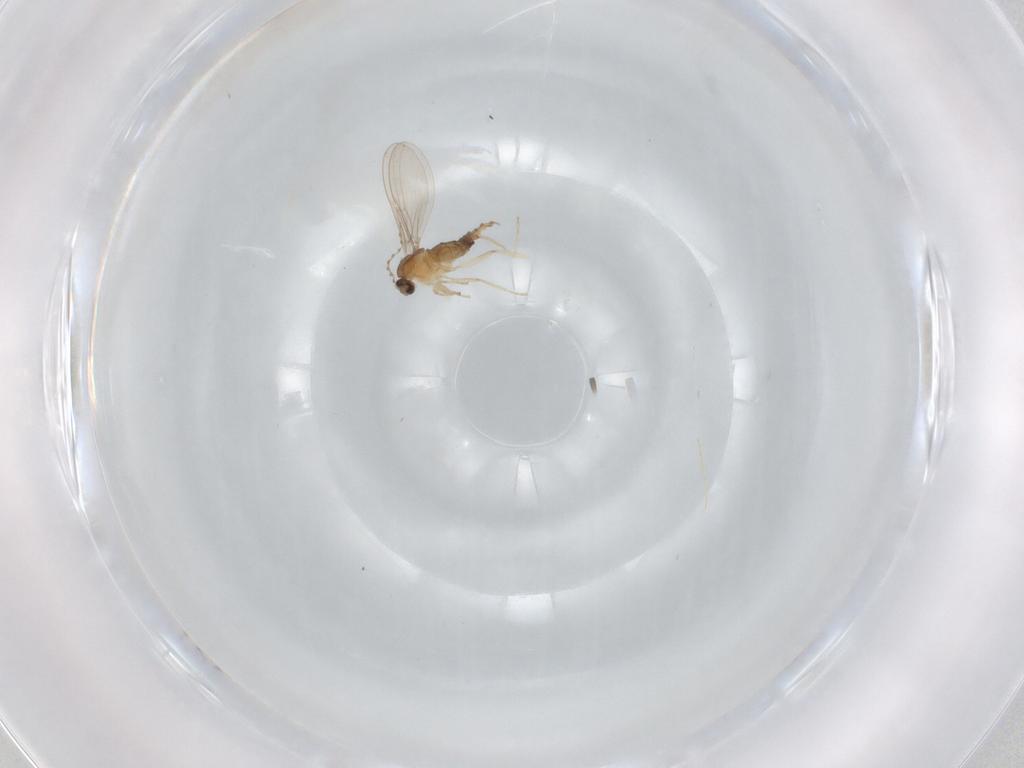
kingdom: Animalia
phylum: Arthropoda
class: Insecta
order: Diptera
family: Cecidomyiidae
